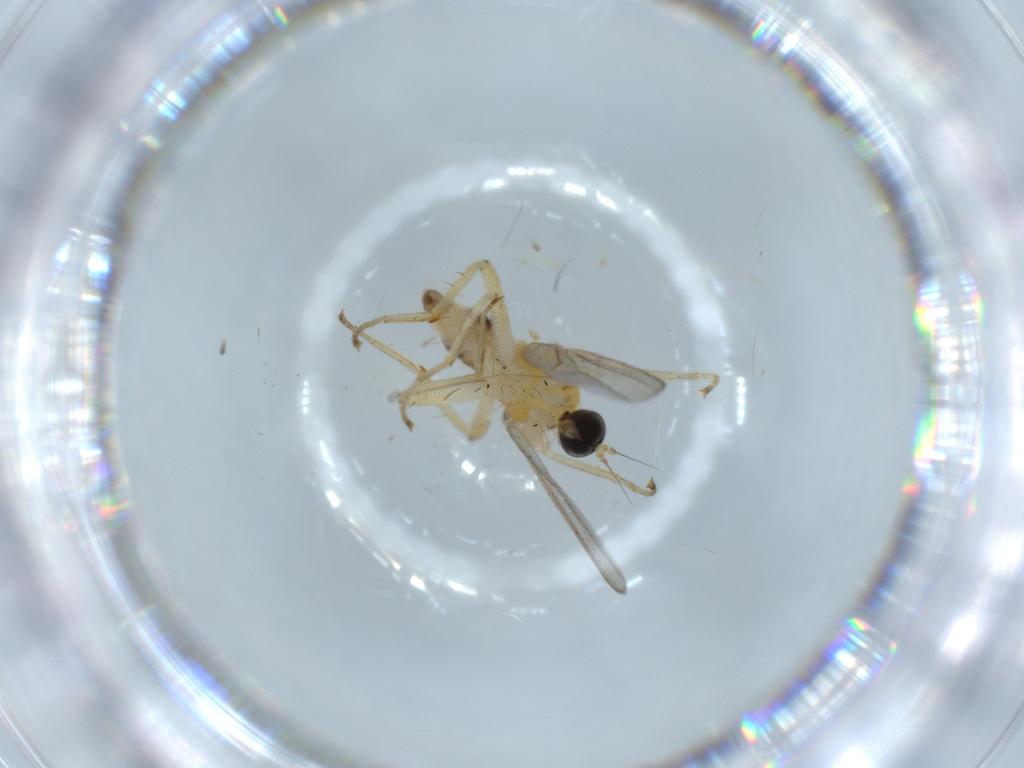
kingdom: Animalia
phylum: Arthropoda
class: Insecta
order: Diptera
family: Hybotidae
